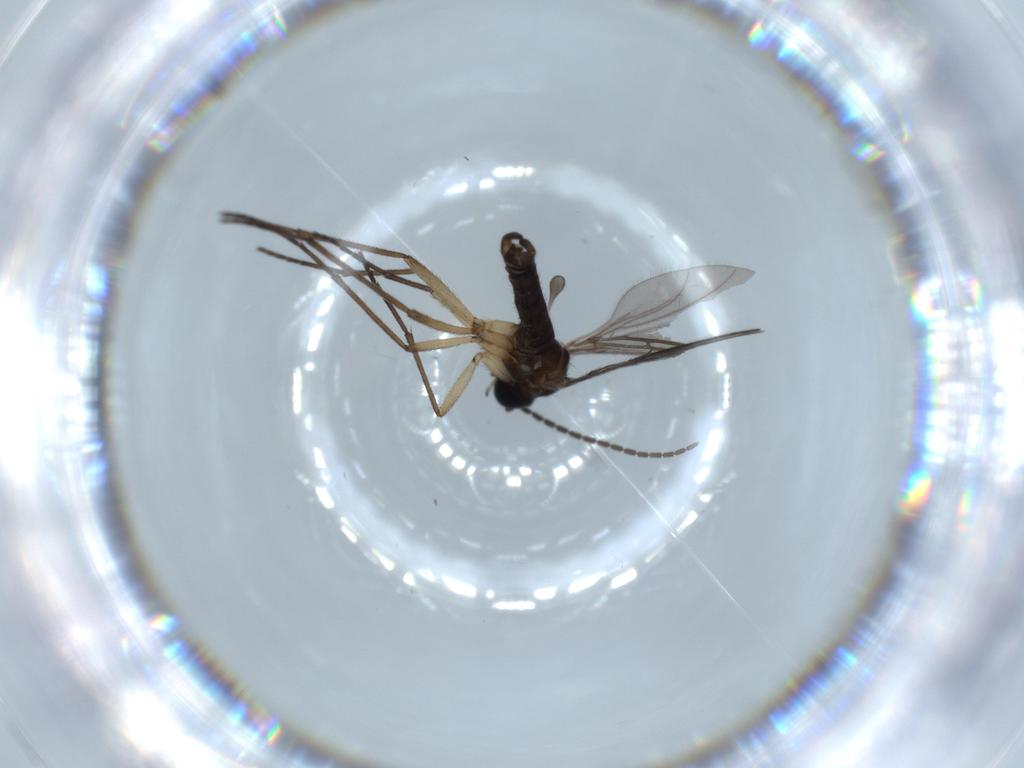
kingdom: Animalia
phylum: Arthropoda
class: Insecta
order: Diptera
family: Sciaridae
